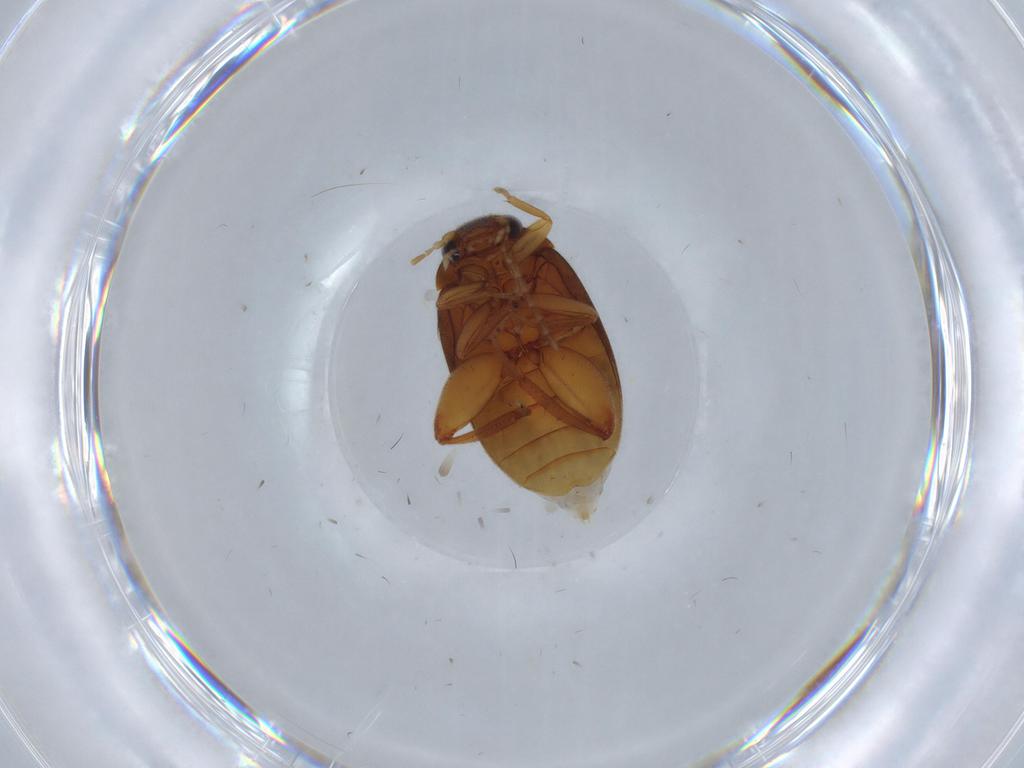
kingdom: Animalia
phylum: Arthropoda
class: Insecta
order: Coleoptera
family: Scirtidae
